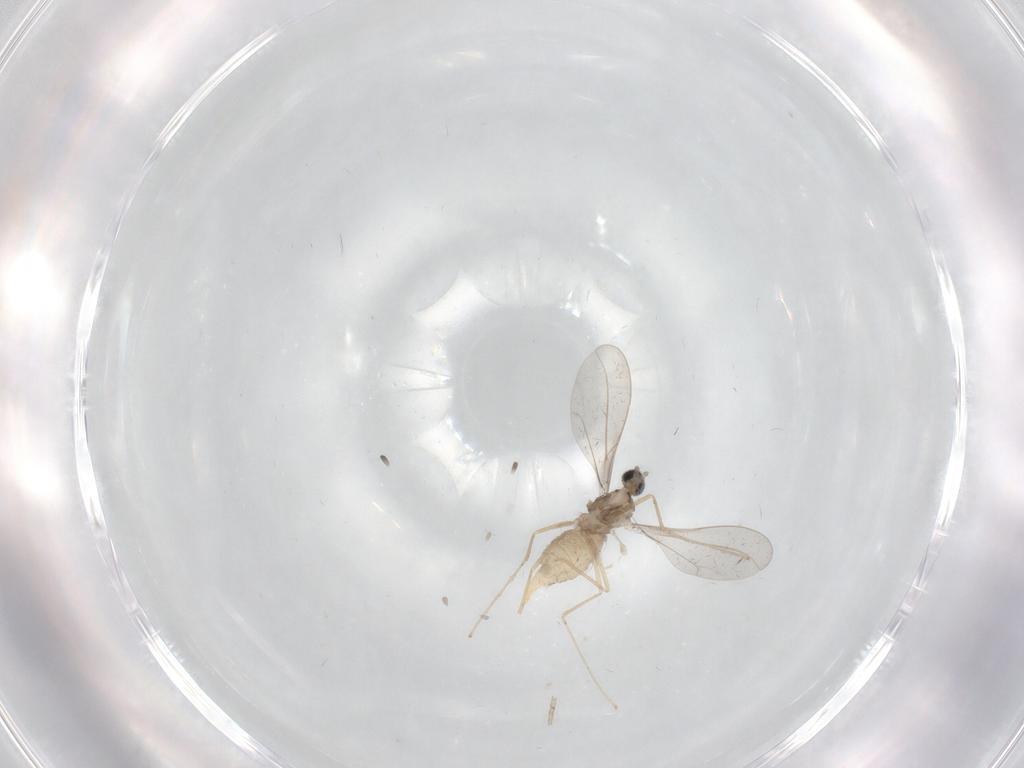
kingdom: Animalia
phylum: Arthropoda
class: Insecta
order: Diptera
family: Cecidomyiidae
